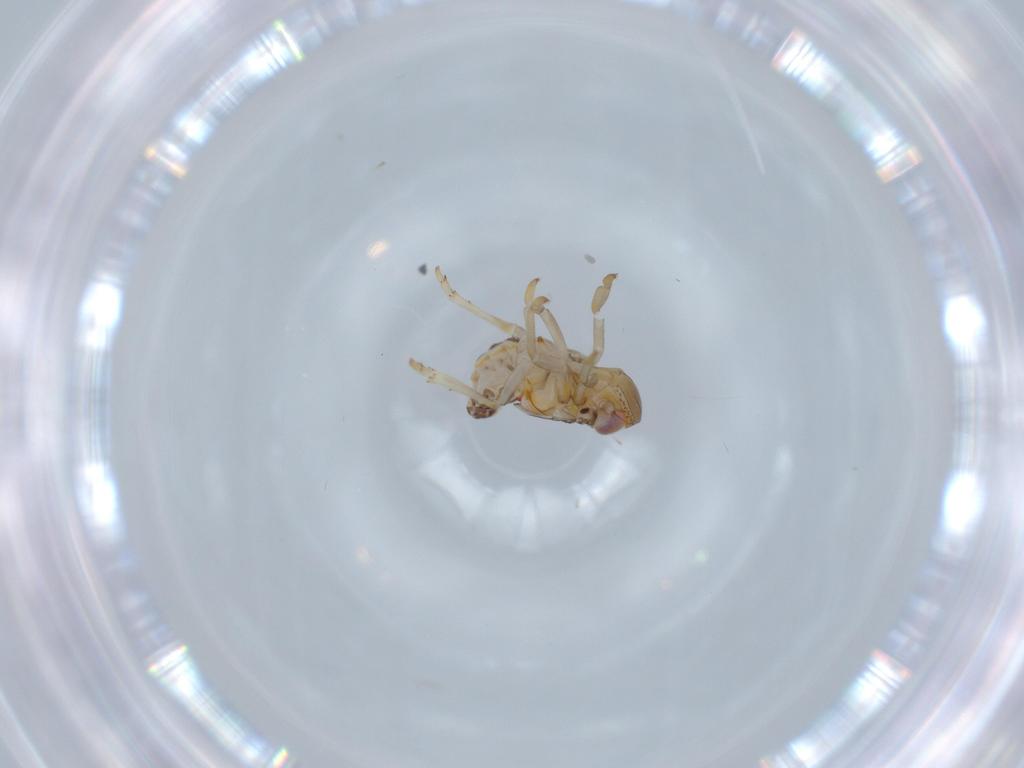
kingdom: Animalia
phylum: Arthropoda
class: Insecta
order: Hemiptera
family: Issidae
